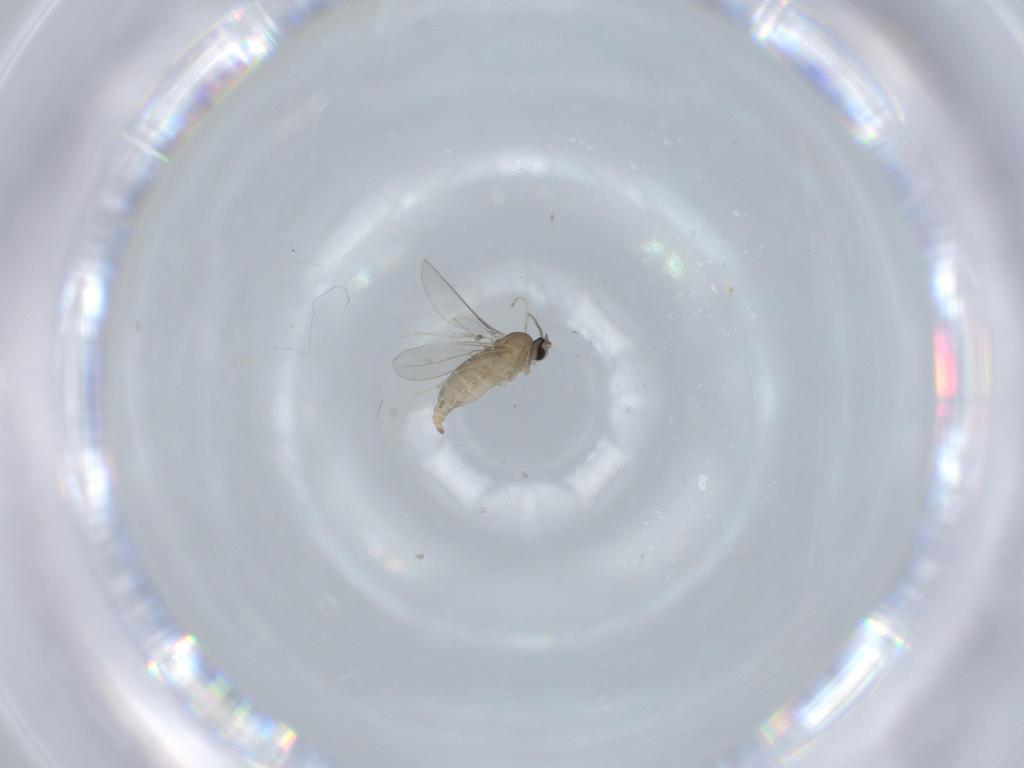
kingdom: Animalia
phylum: Arthropoda
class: Insecta
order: Diptera
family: Cecidomyiidae
